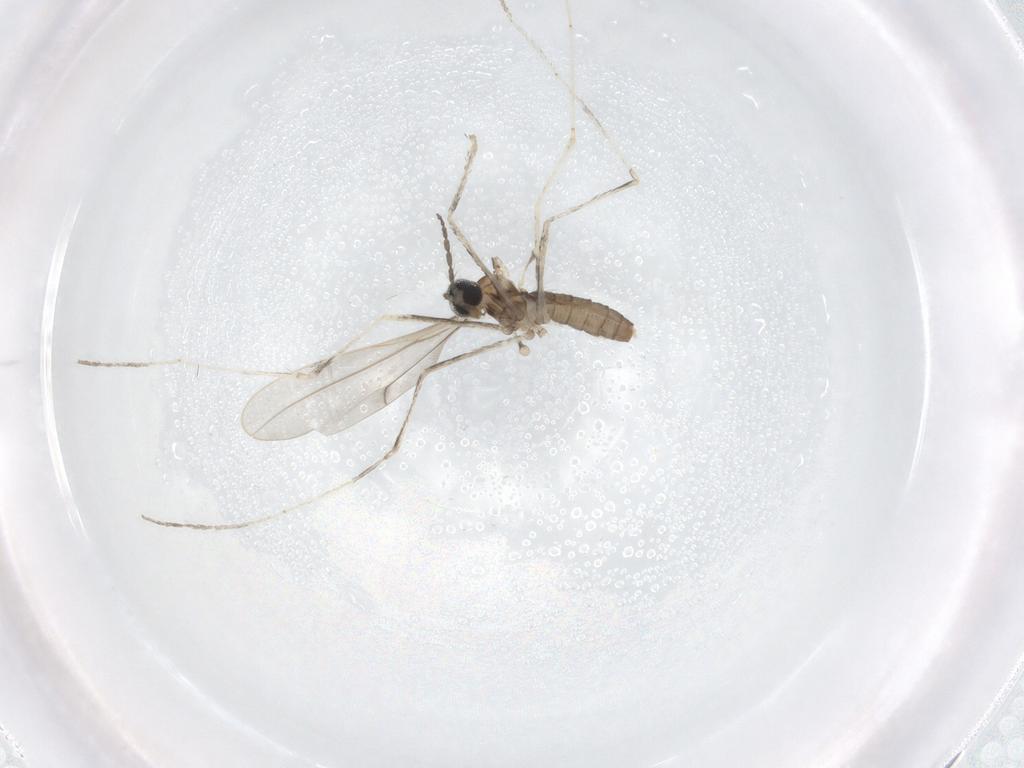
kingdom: Animalia
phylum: Arthropoda
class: Insecta
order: Diptera
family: Cecidomyiidae
